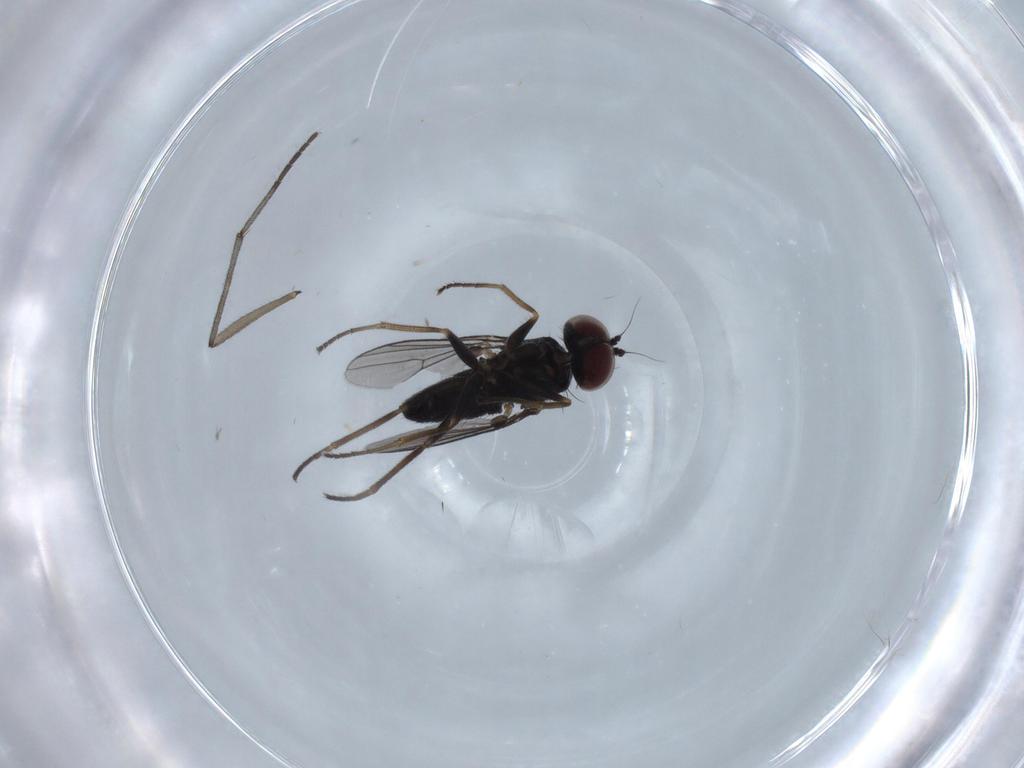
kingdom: Animalia
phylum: Arthropoda
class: Insecta
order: Diptera
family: Dolichopodidae
